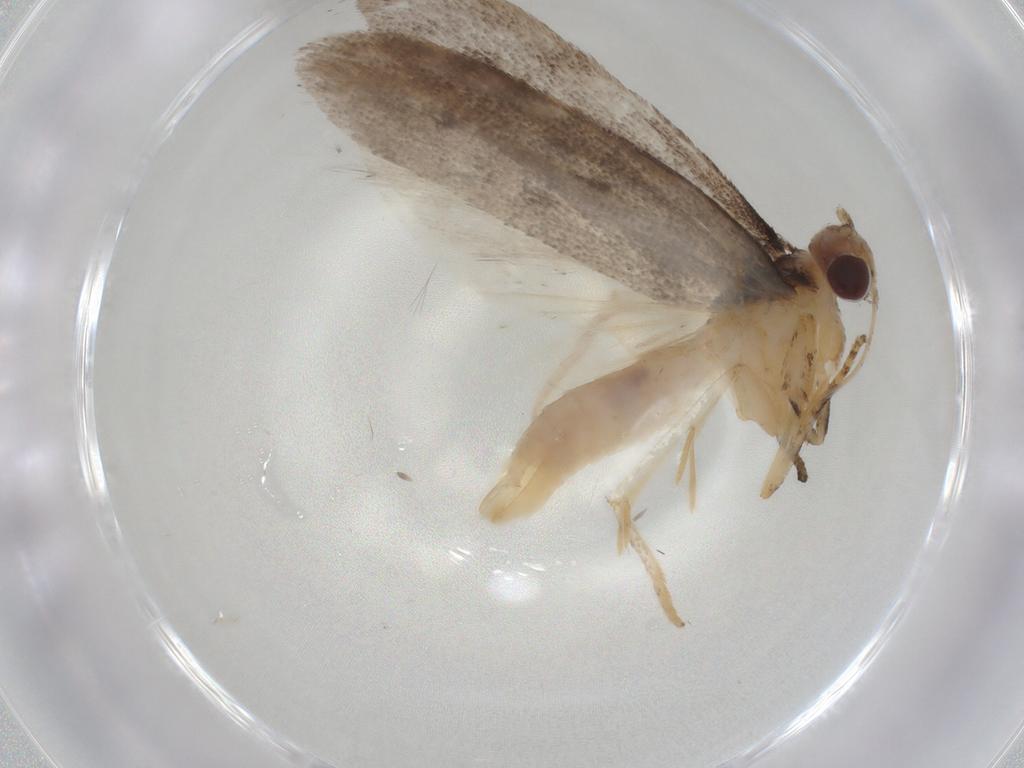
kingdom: Animalia
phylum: Arthropoda
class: Insecta
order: Lepidoptera
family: Gelechiidae
